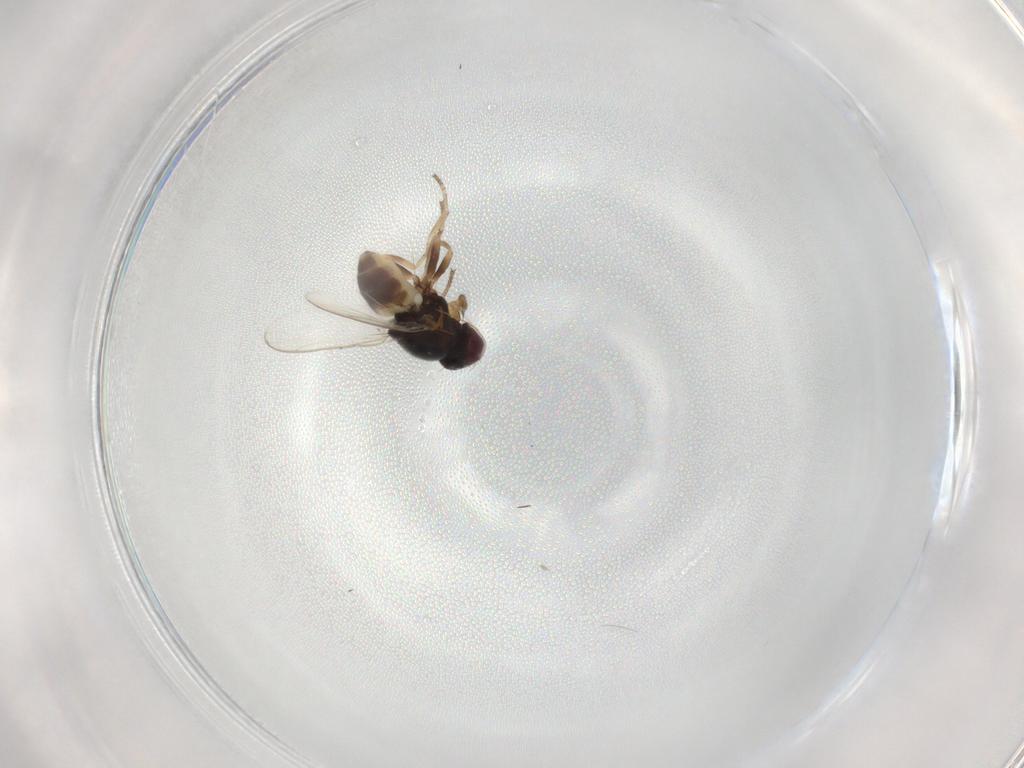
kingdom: Animalia
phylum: Arthropoda
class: Insecta
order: Diptera
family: Chloropidae
